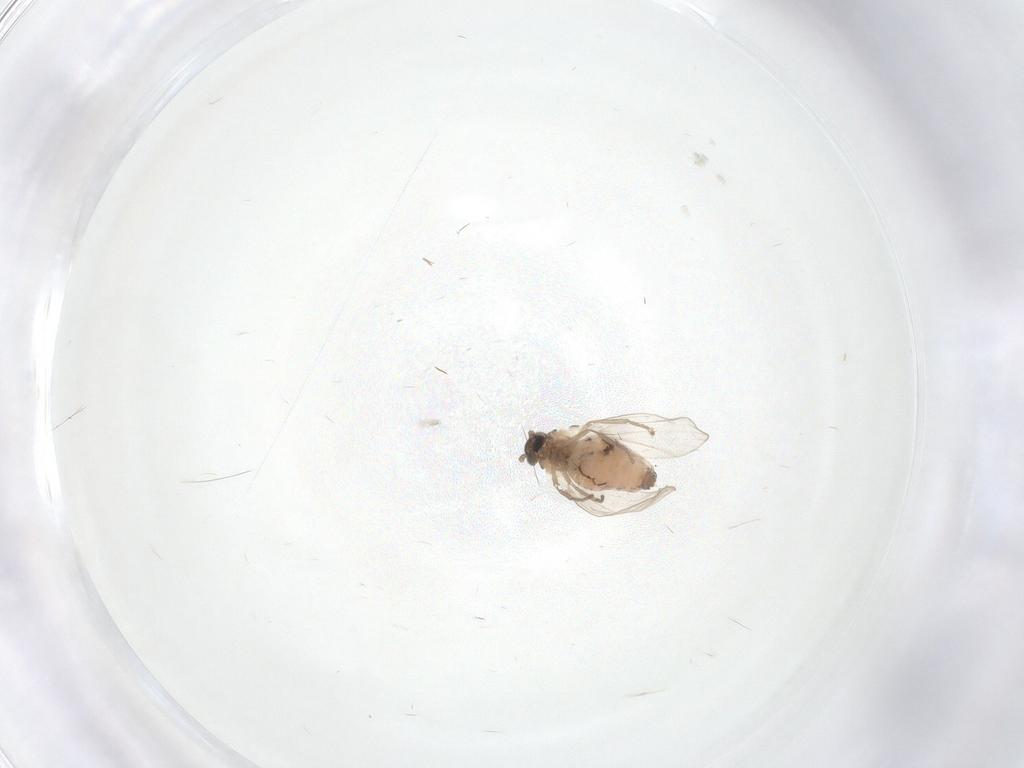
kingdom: Animalia
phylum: Arthropoda
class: Insecta
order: Diptera
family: Psychodidae
